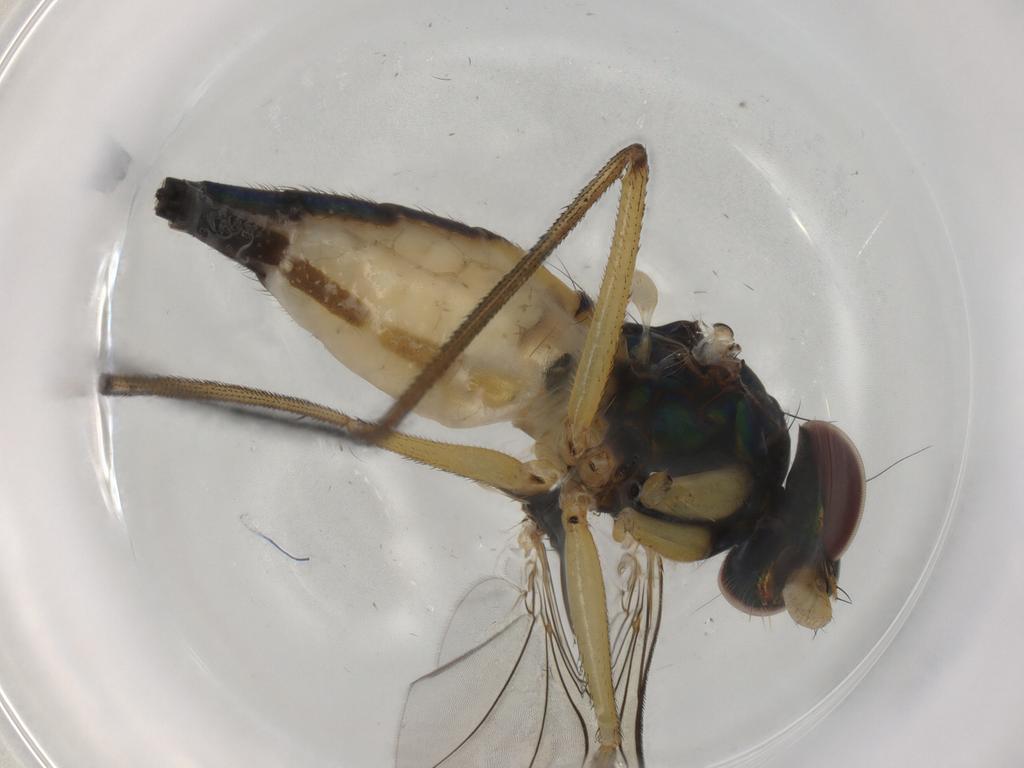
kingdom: Animalia
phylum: Arthropoda
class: Insecta
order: Diptera
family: Dolichopodidae
